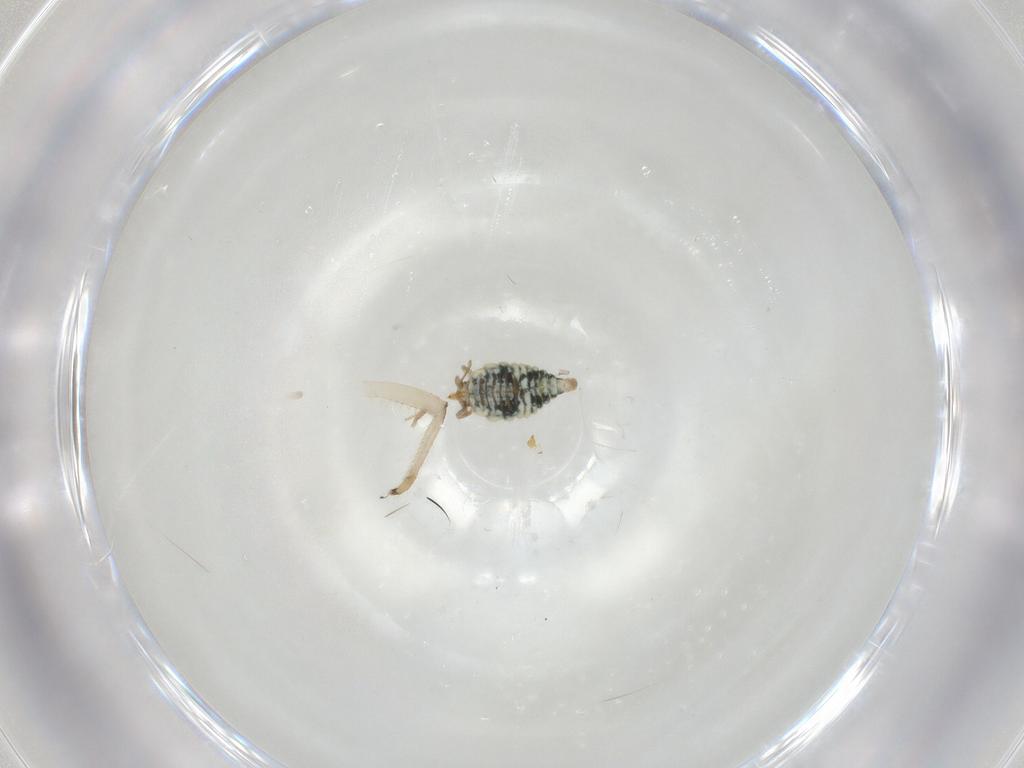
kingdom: Animalia
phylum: Arthropoda
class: Insecta
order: Neuroptera
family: Chrysopidae
